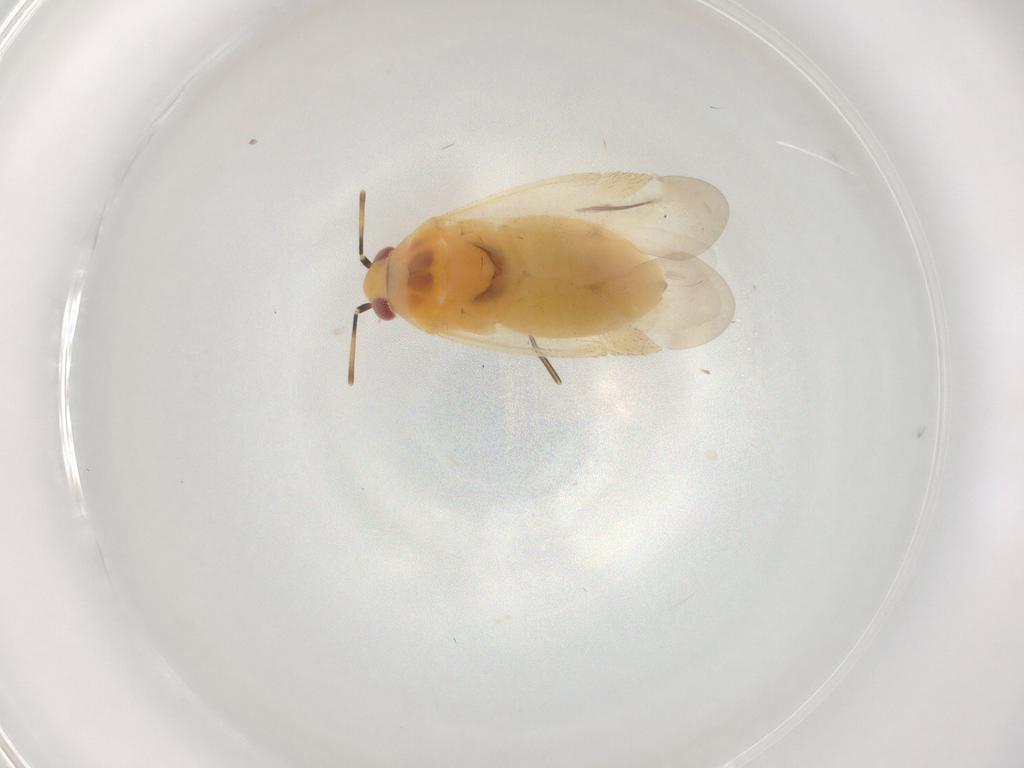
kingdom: Animalia
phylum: Arthropoda
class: Insecta
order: Hemiptera
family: Miridae
